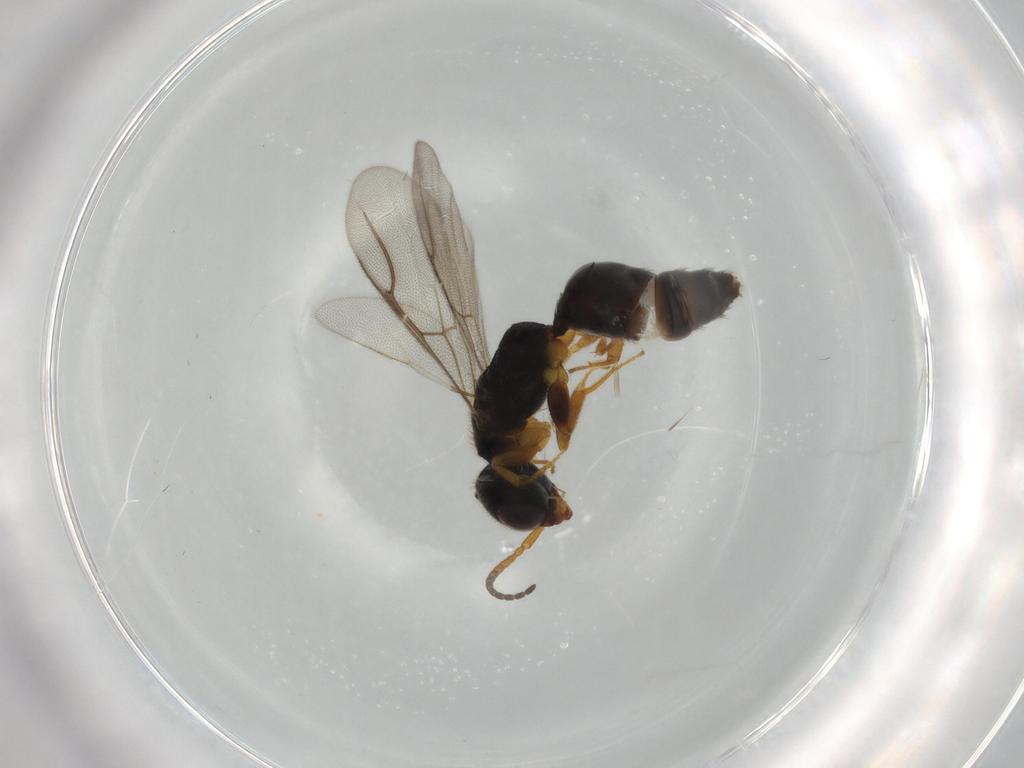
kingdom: Animalia
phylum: Arthropoda
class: Insecta
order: Hymenoptera
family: Bethylidae
